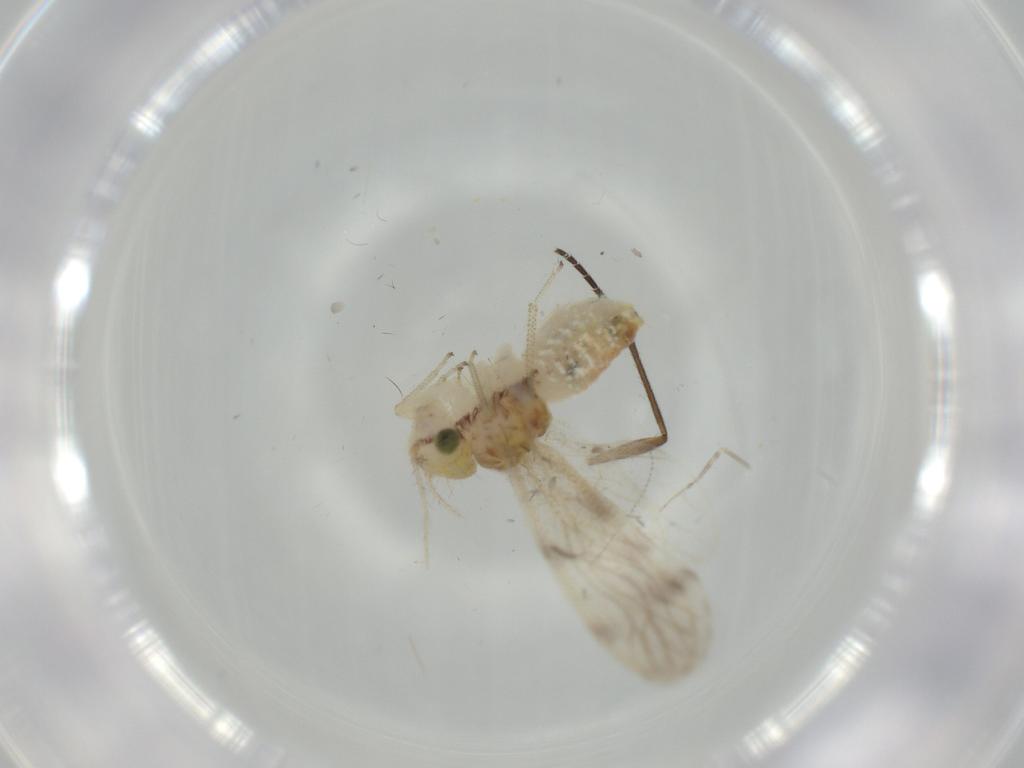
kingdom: Animalia
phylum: Arthropoda
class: Insecta
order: Psocodea
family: Pseudocaeciliidae
